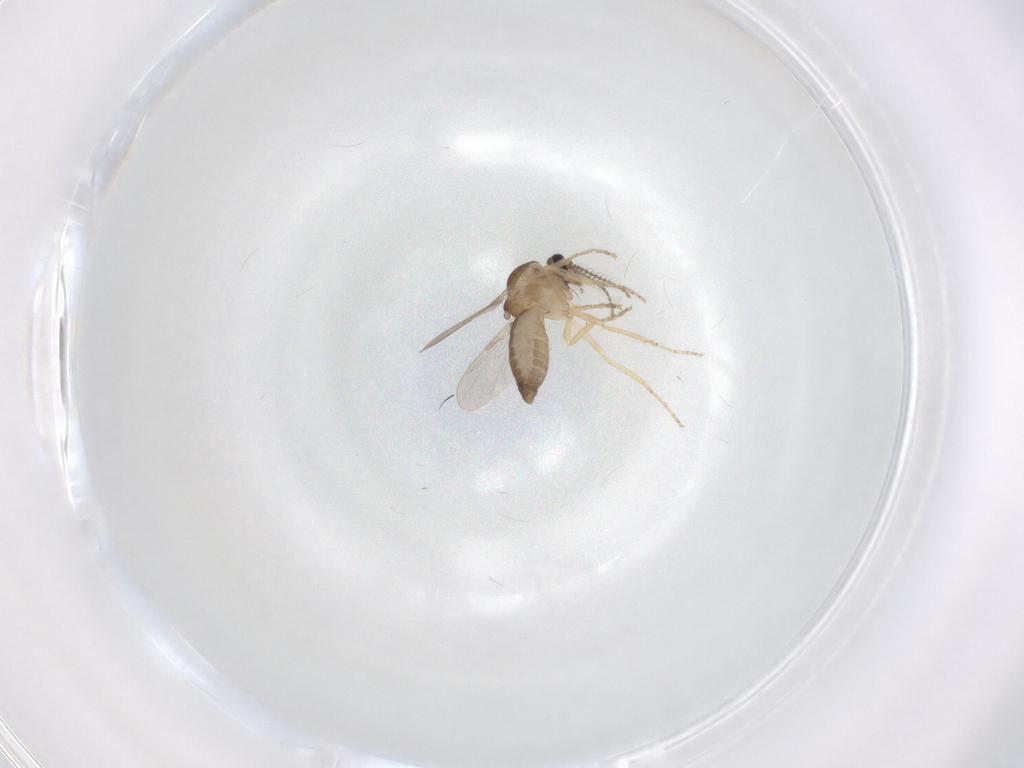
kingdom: Animalia
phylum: Arthropoda
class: Insecta
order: Diptera
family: Ceratopogonidae
